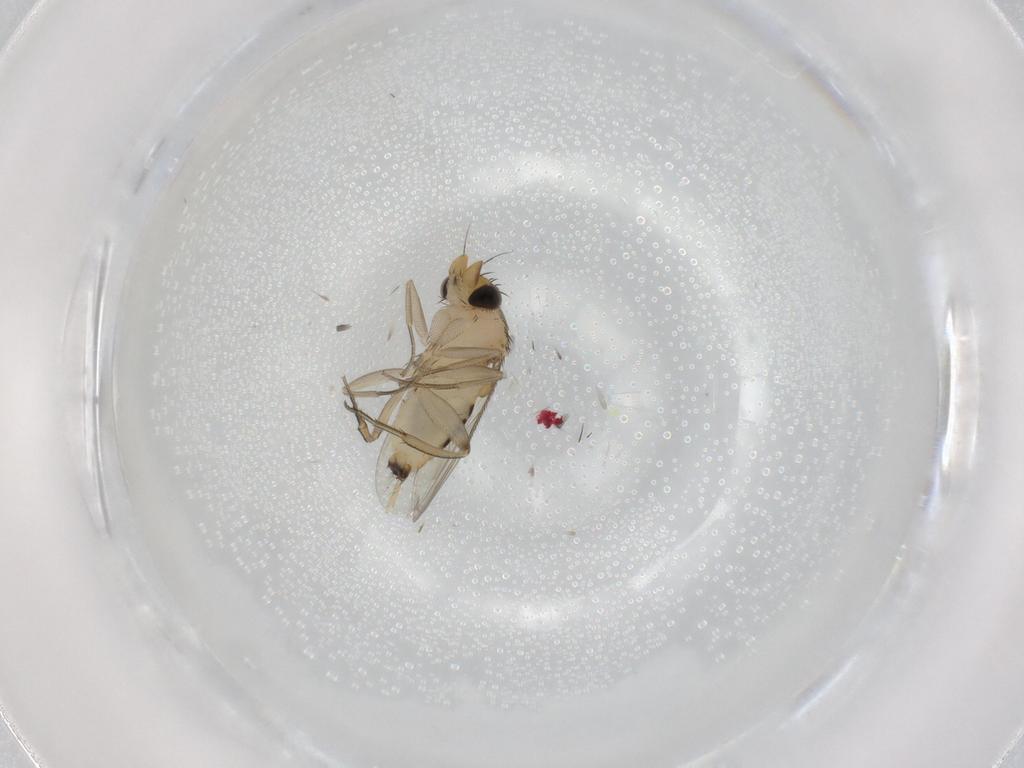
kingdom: Animalia
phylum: Arthropoda
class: Insecta
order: Diptera
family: Phoridae
